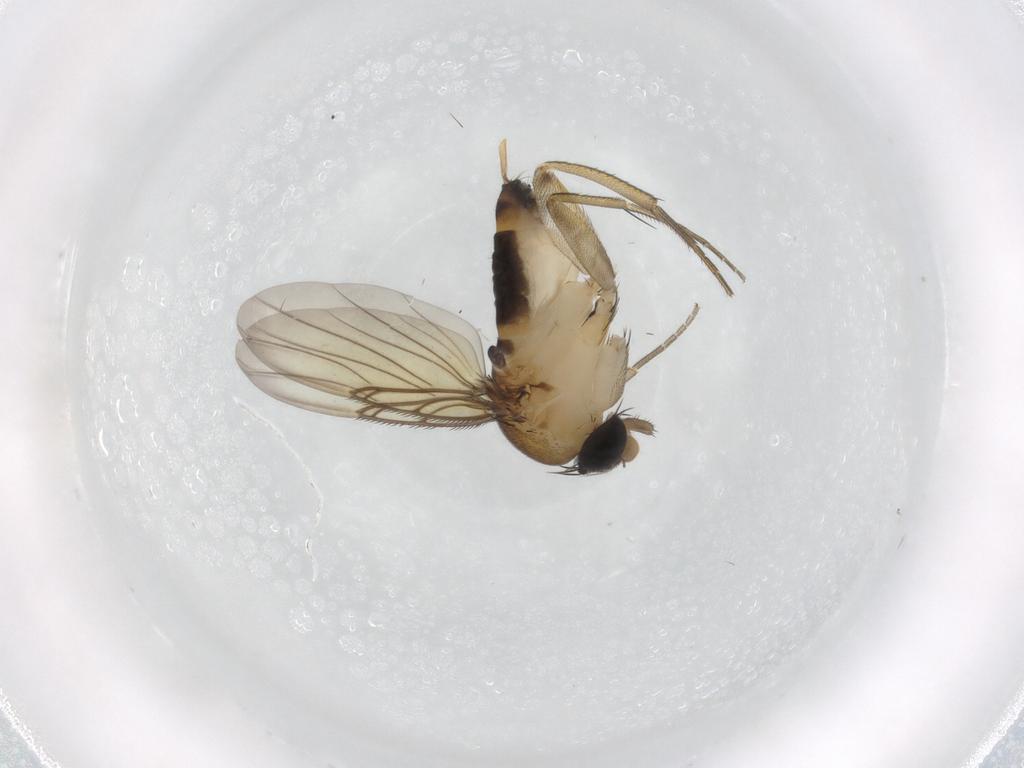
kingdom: Animalia
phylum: Arthropoda
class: Insecta
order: Diptera
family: Phoridae
